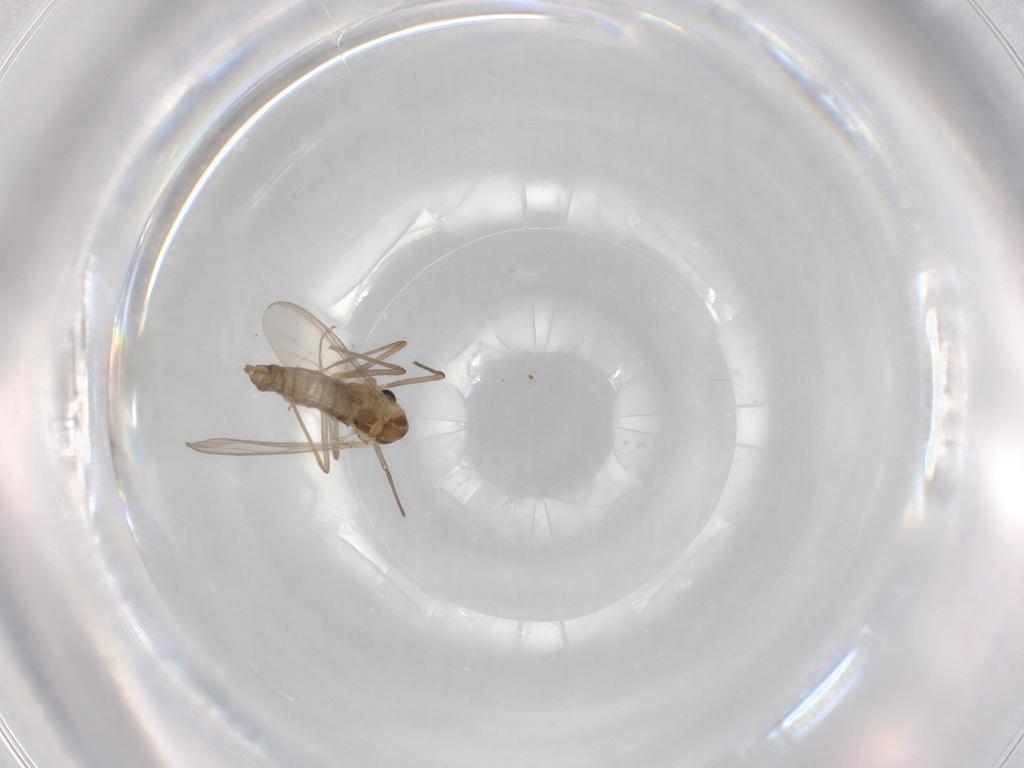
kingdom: Animalia
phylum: Arthropoda
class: Insecta
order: Diptera
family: Chironomidae
